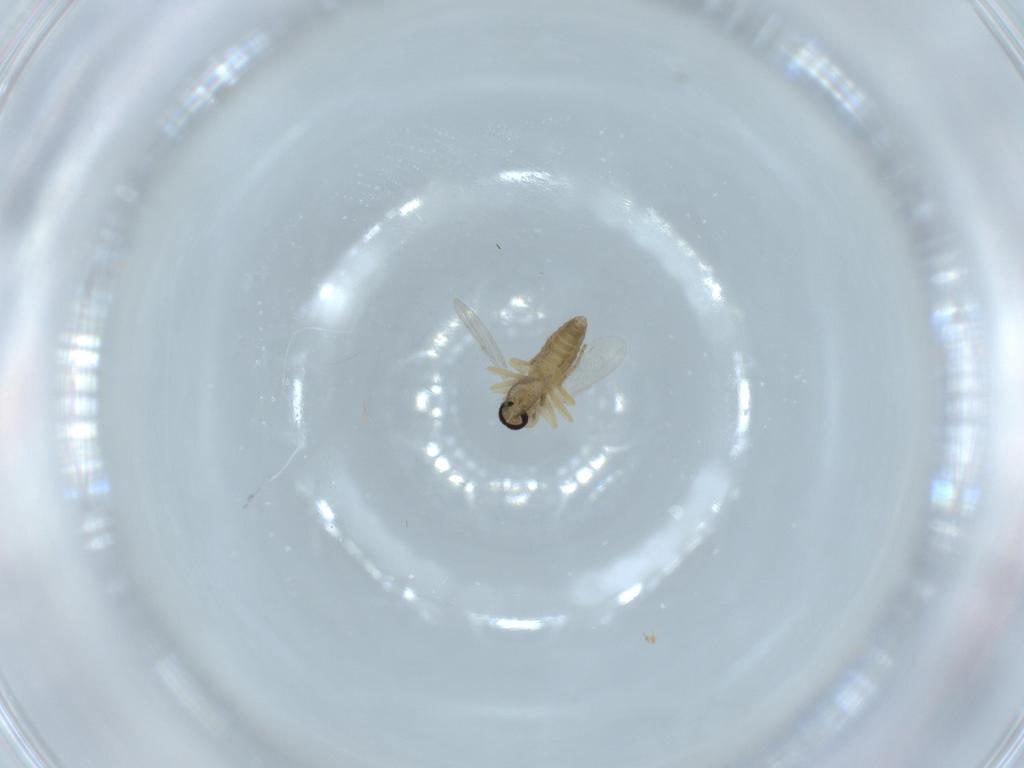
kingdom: Animalia
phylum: Arthropoda
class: Insecta
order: Diptera
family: Ceratopogonidae
